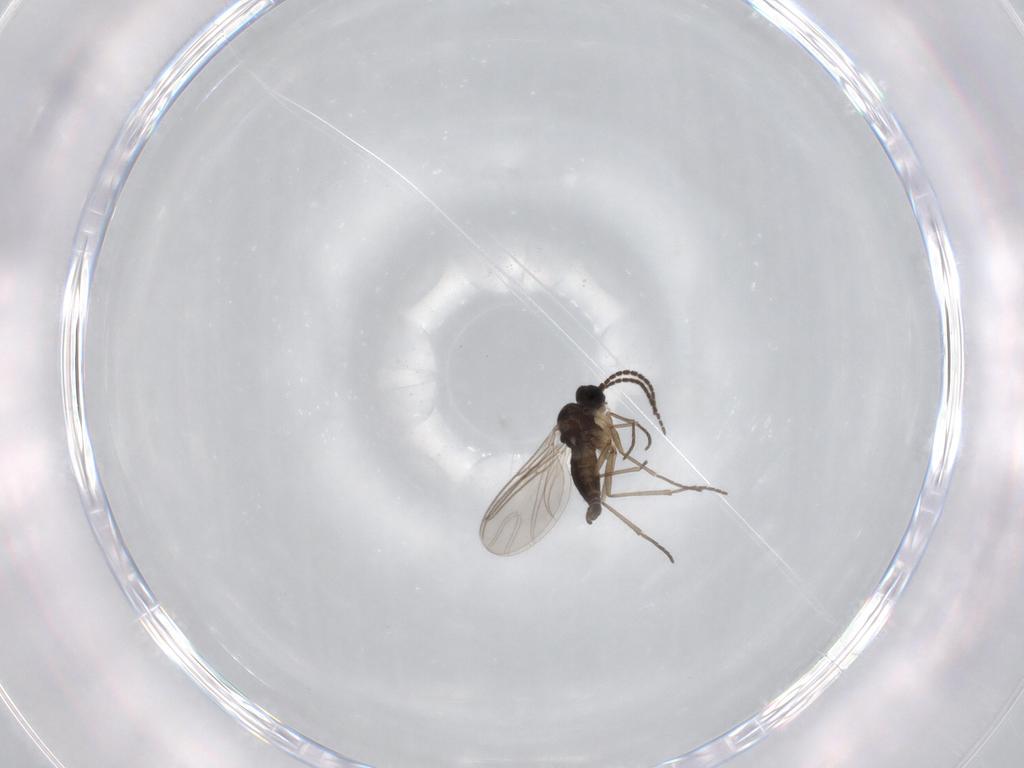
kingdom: Animalia
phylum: Arthropoda
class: Insecta
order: Diptera
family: Sciaridae
